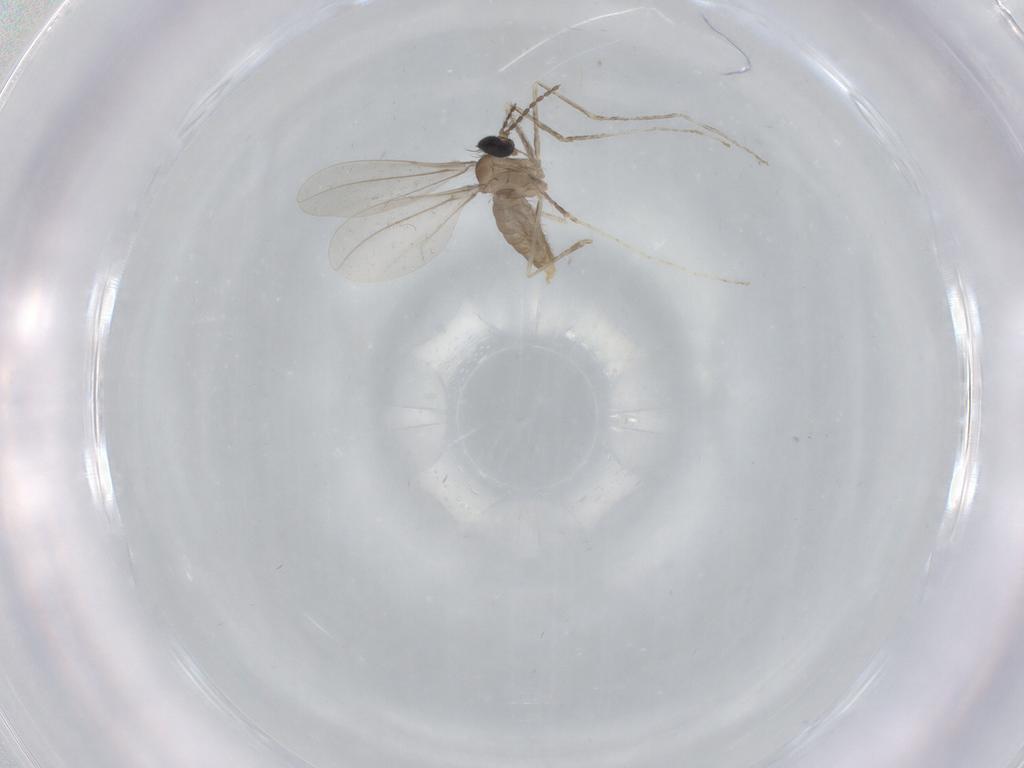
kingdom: Animalia
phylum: Arthropoda
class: Insecta
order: Diptera
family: Cecidomyiidae
